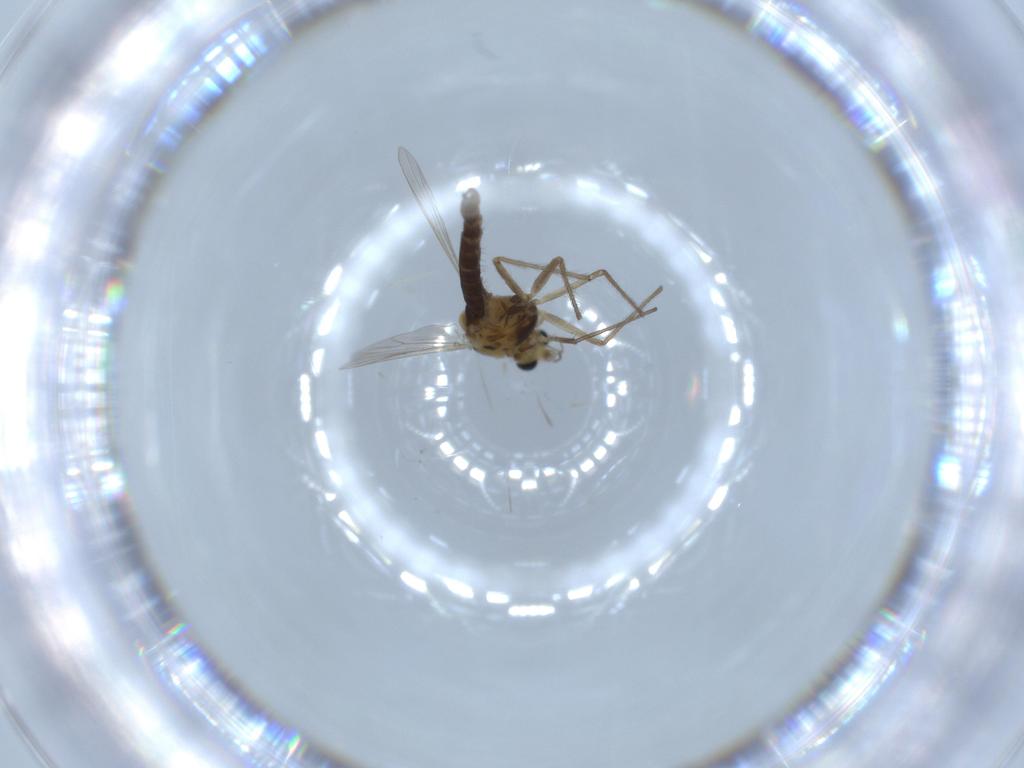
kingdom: Animalia
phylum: Arthropoda
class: Insecta
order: Diptera
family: Chironomidae
